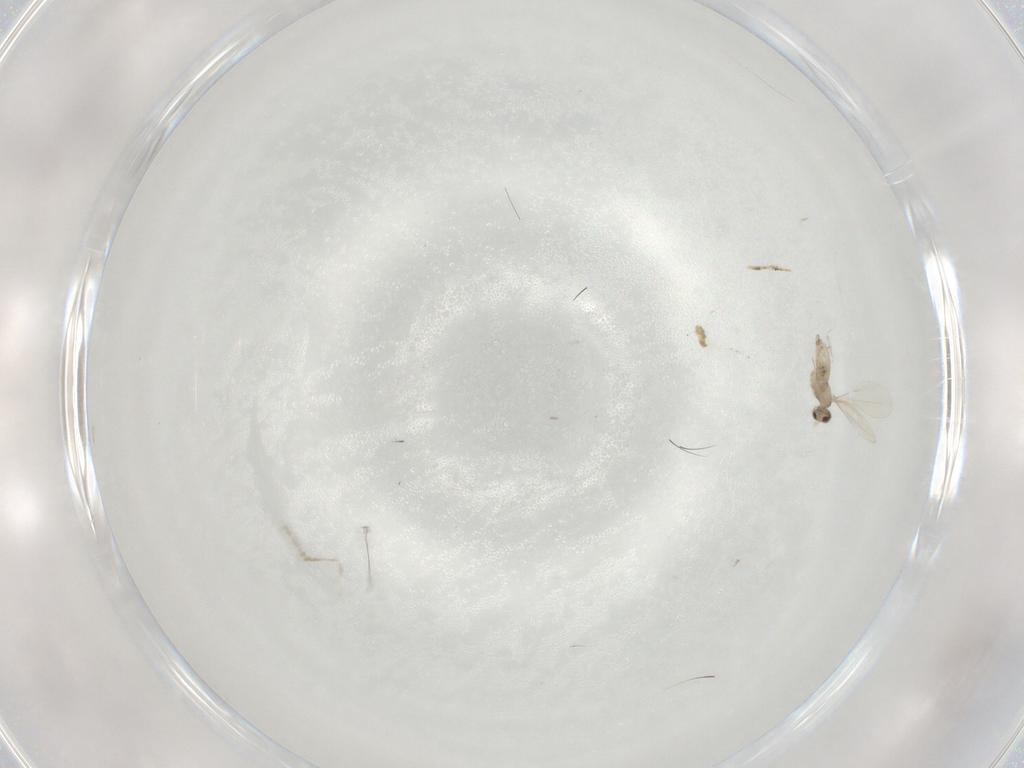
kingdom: Animalia
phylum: Arthropoda
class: Insecta
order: Diptera
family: Cecidomyiidae
